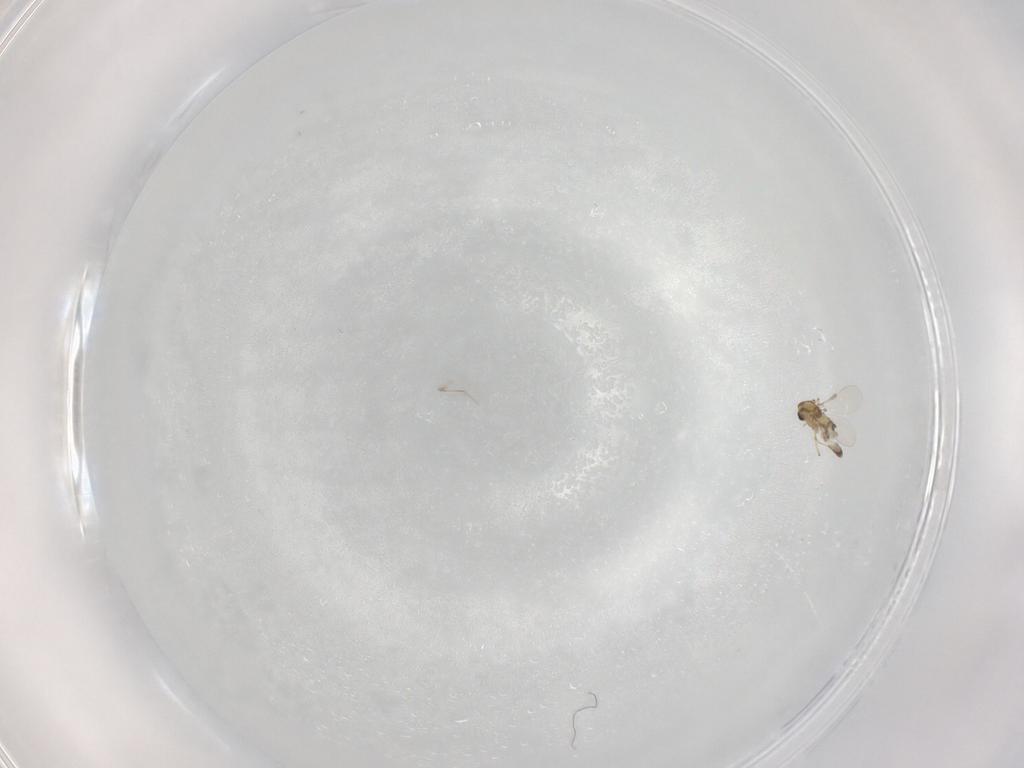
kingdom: Animalia
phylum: Arthropoda
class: Insecta
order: Diptera
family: Chironomidae
